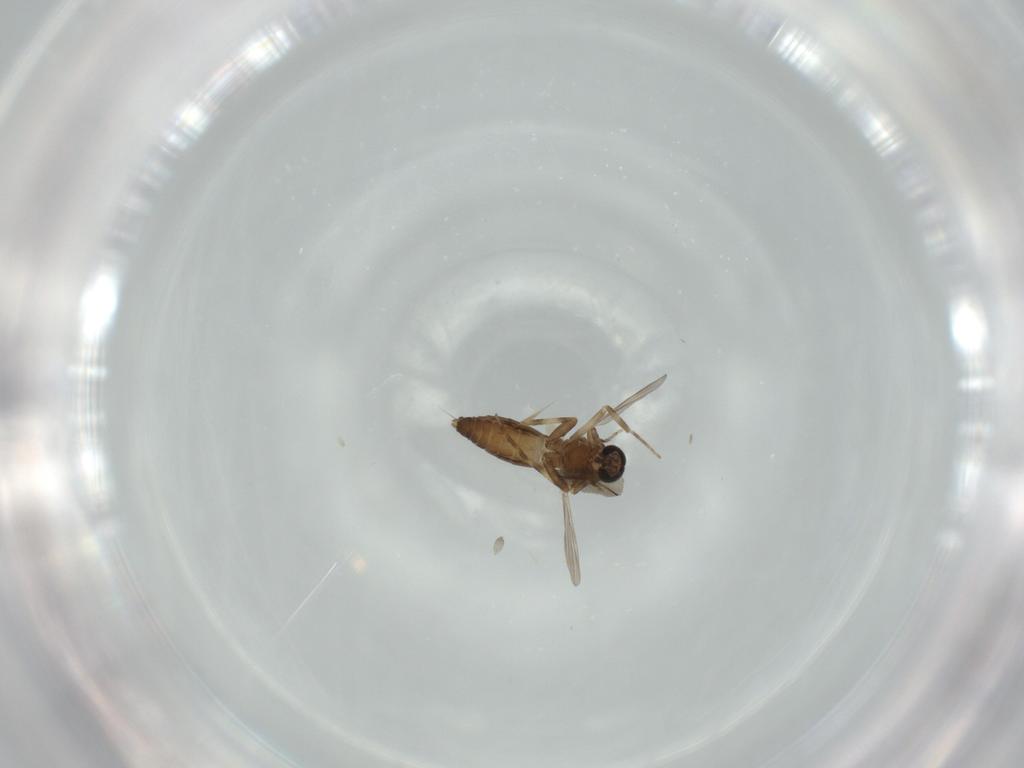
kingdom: Animalia
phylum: Arthropoda
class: Insecta
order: Diptera
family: Ceratopogonidae
